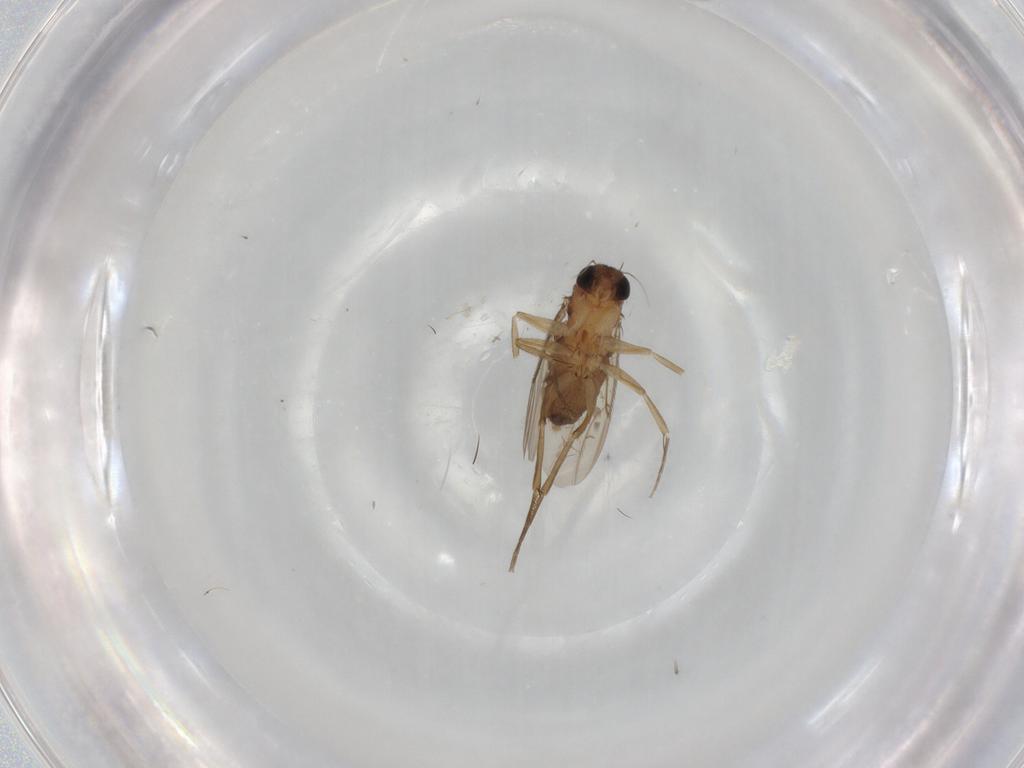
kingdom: Animalia
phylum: Arthropoda
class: Insecta
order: Diptera
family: Phoridae
